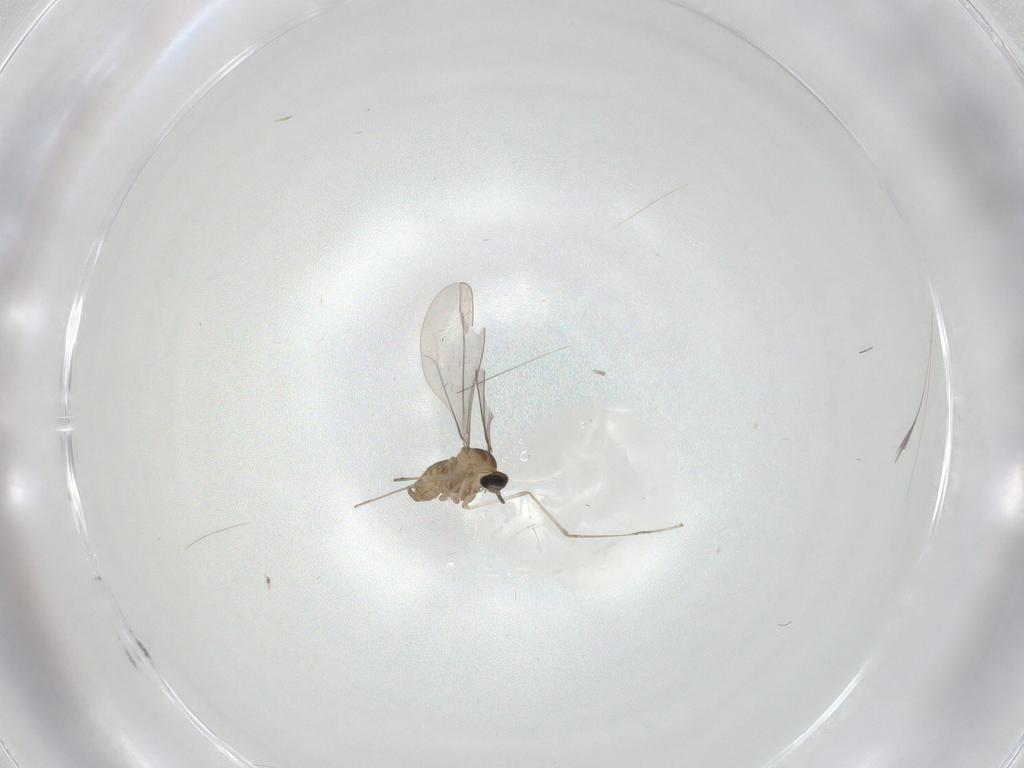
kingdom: Animalia
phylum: Arthropoda
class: Insecta
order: Diptera
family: Cecidomyiidae
